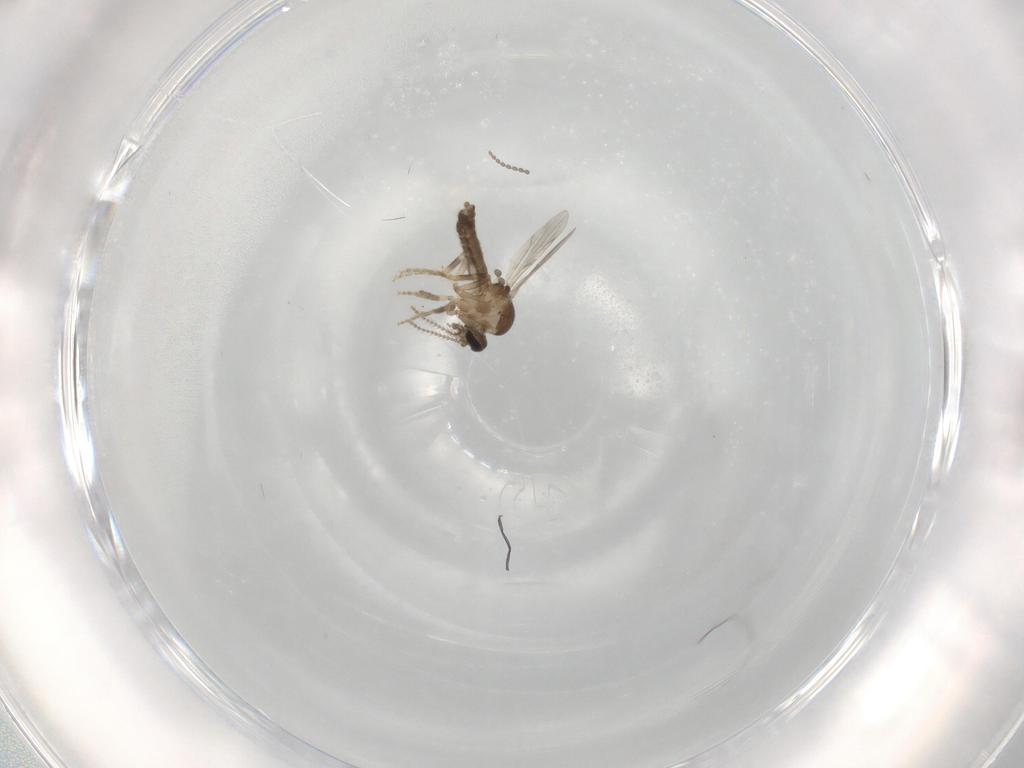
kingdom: Animalia
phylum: Arthropoda
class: Insecta
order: Diptera
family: Cecidomyiidae
